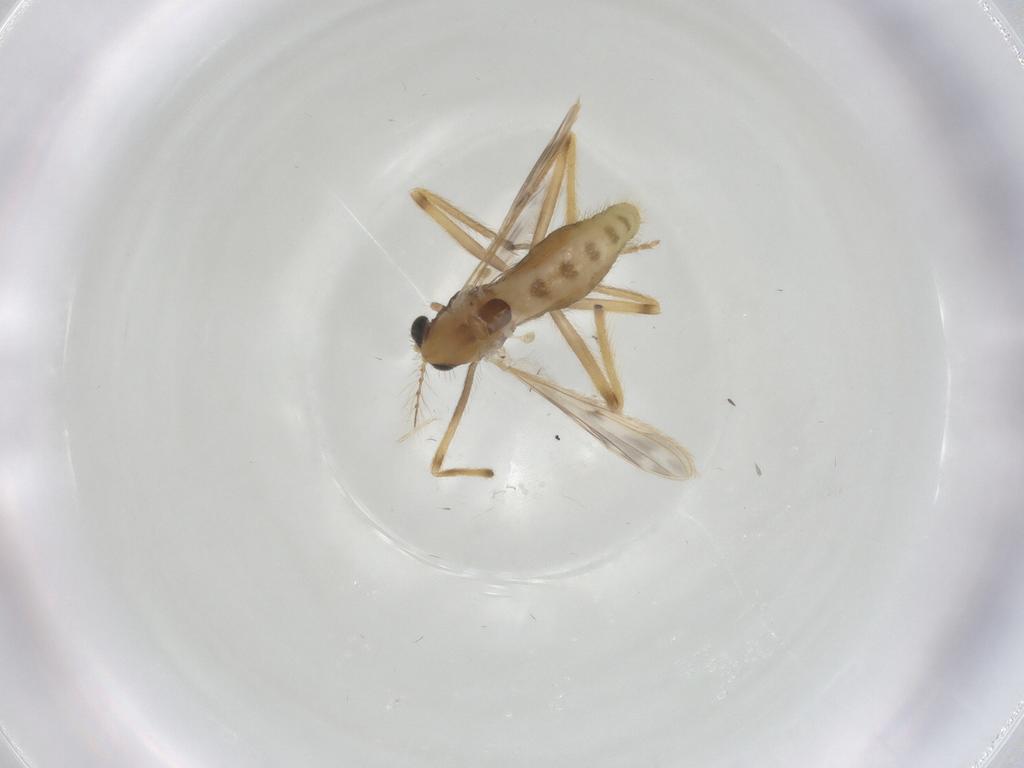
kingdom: Animalia
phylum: Arthropoda
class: Insecta
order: Diptera
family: Chironomidae
